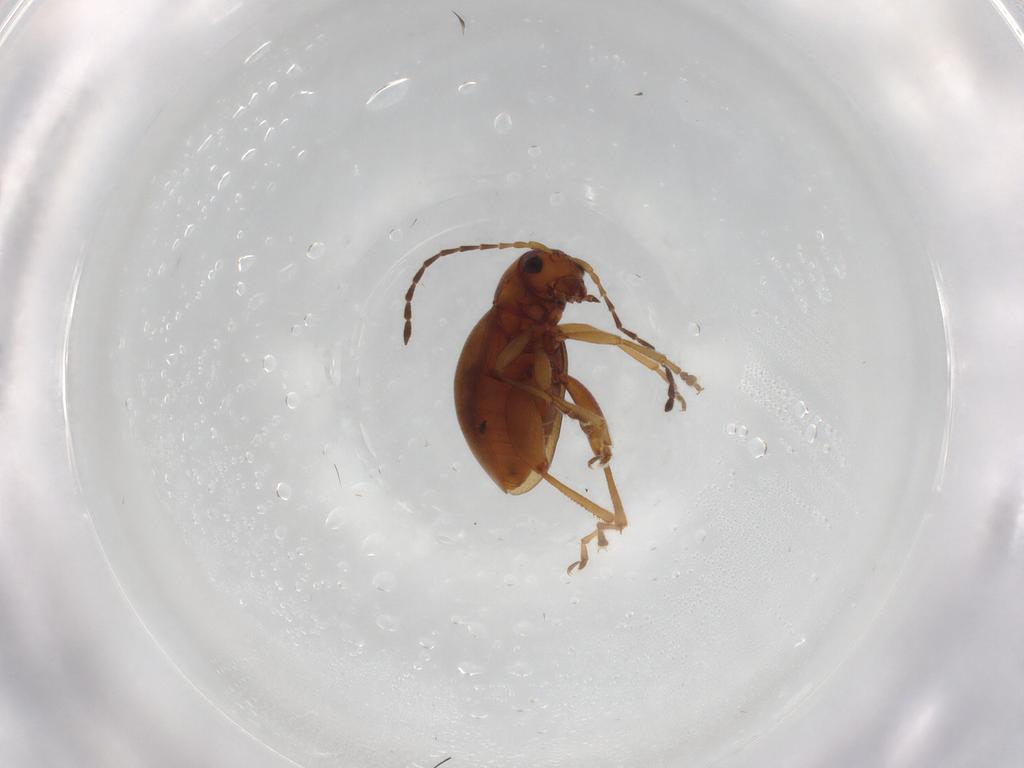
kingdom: Animalia
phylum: Arthropoda
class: Insecta
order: Coleoptera
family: Chrysomelidae
